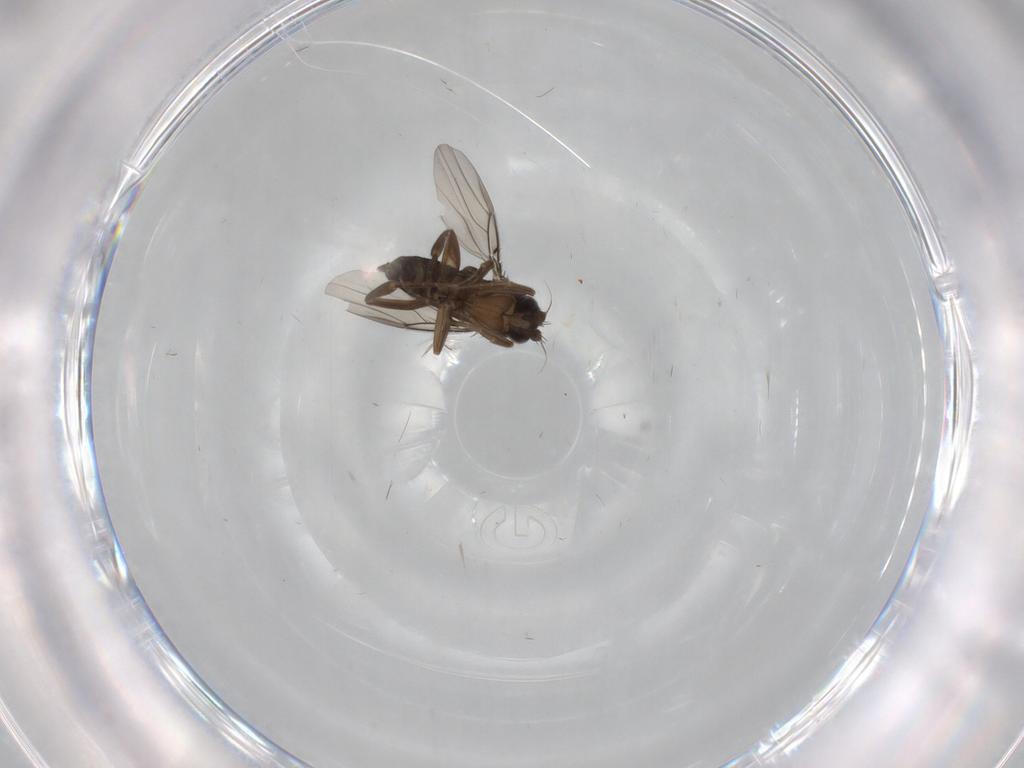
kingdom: Animalia
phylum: Arthropoda
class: Insecta
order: Diptera
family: Phoridae
